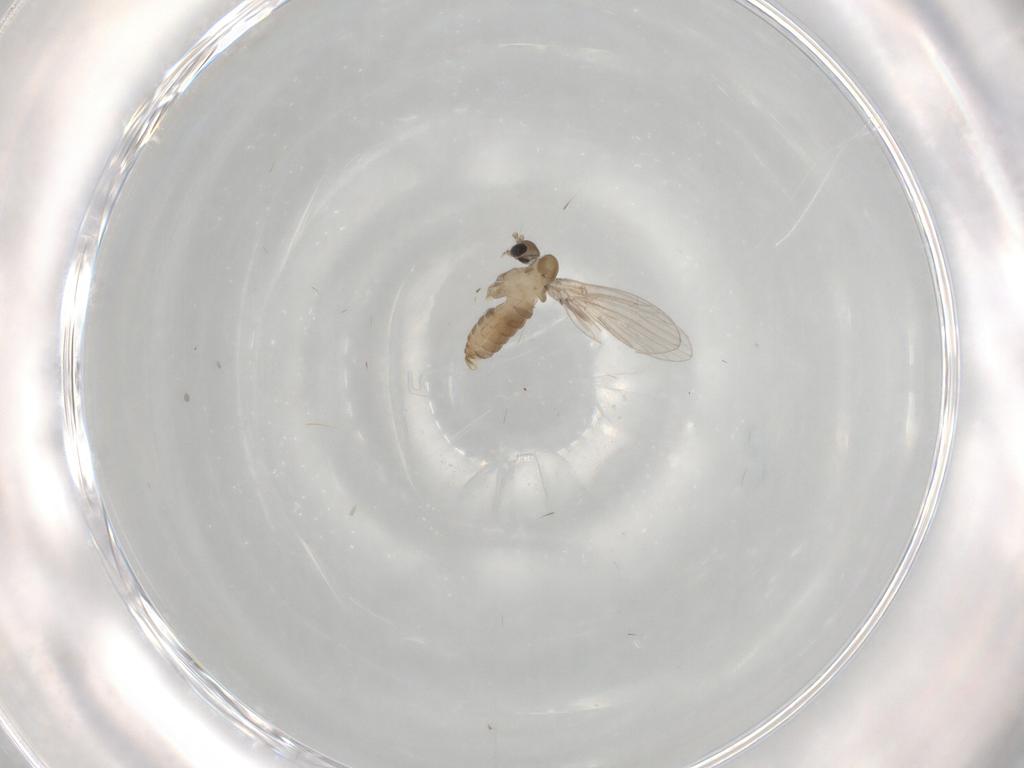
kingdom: Animalia
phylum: Arthropoda
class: Insecta
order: Diptera
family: Psychodidae
